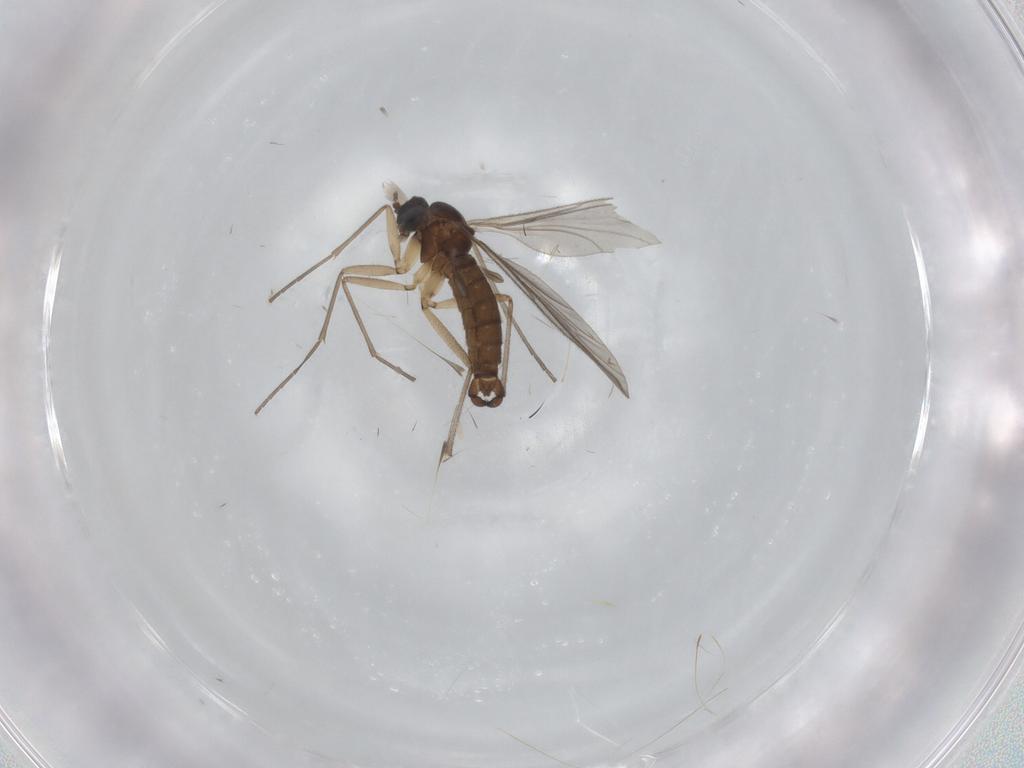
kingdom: Animalia
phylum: Arthropoda
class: Insecta
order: Diptera
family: Sciaridae
